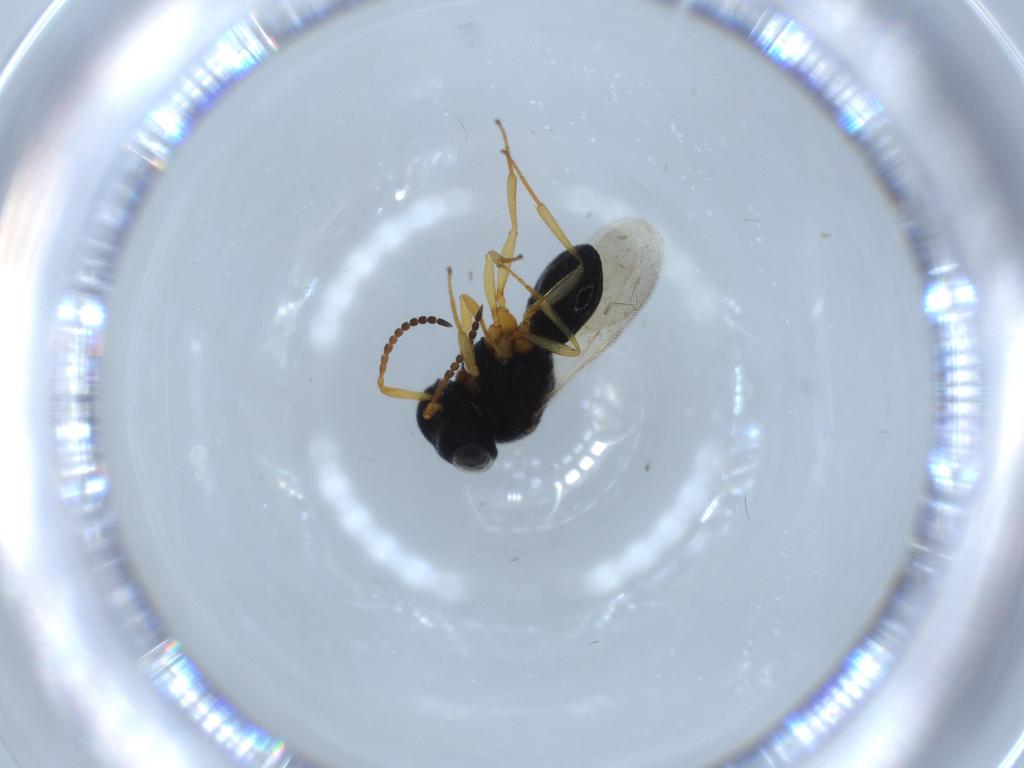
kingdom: Animalia
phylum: Arthropoda
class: Insecta
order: Hymenoptera
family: Scelionidae
